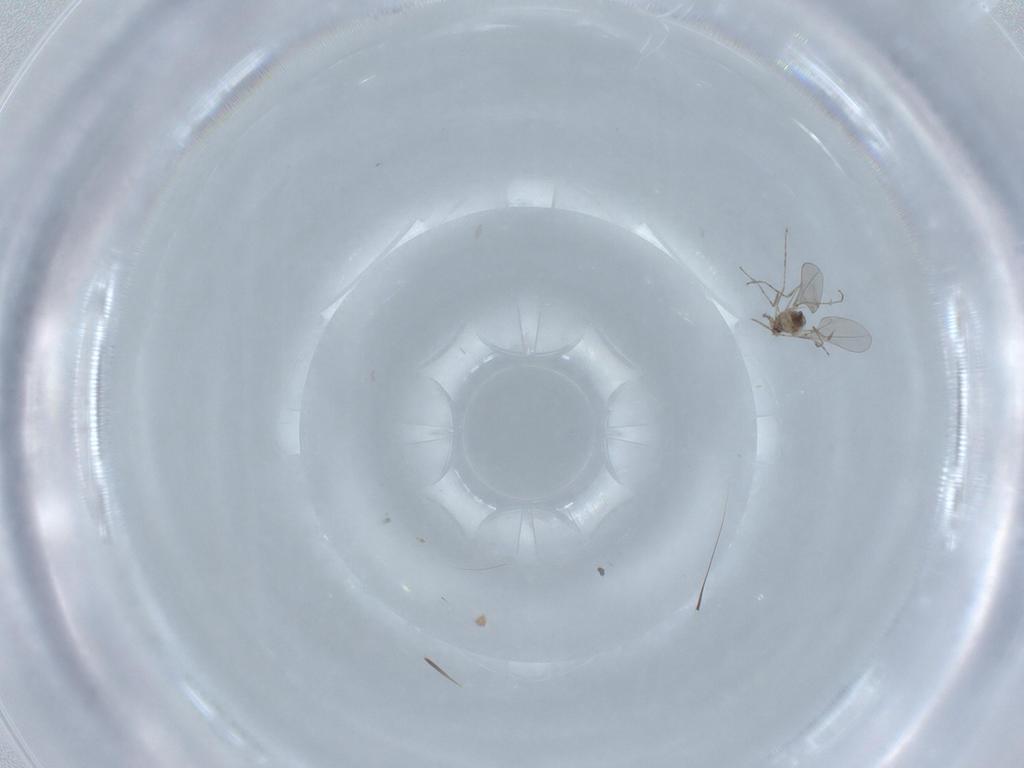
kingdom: Animalia
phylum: Arthropoda
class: Insecta
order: Diptera
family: Cecidomyiidae
